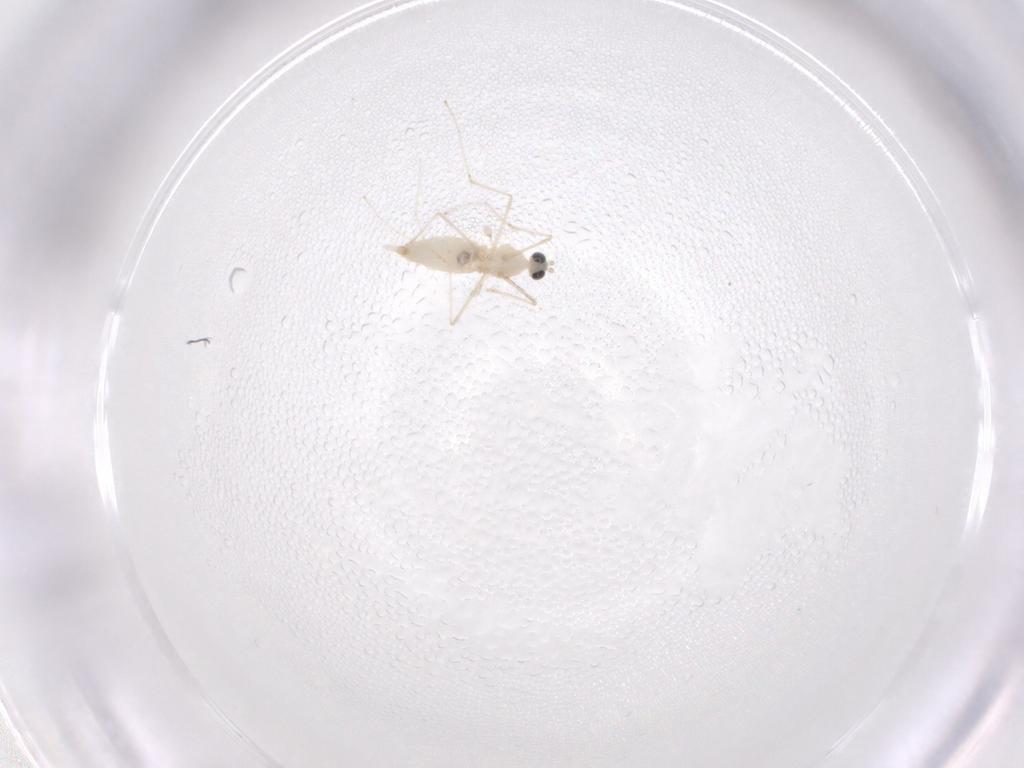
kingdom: Animalia
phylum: Arthropoda
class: Insecta
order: Diptera
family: Cecidomyiidae
